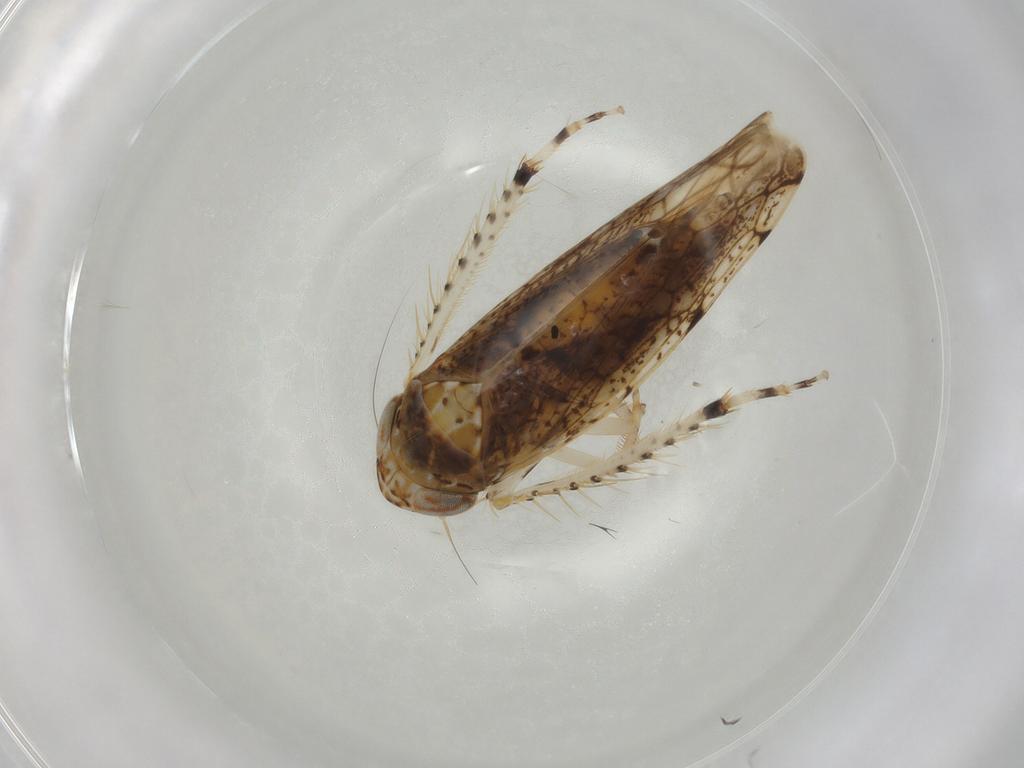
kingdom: Animalia
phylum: Arthropoda
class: Insecta
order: Hemiptera
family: Cicadellidae
